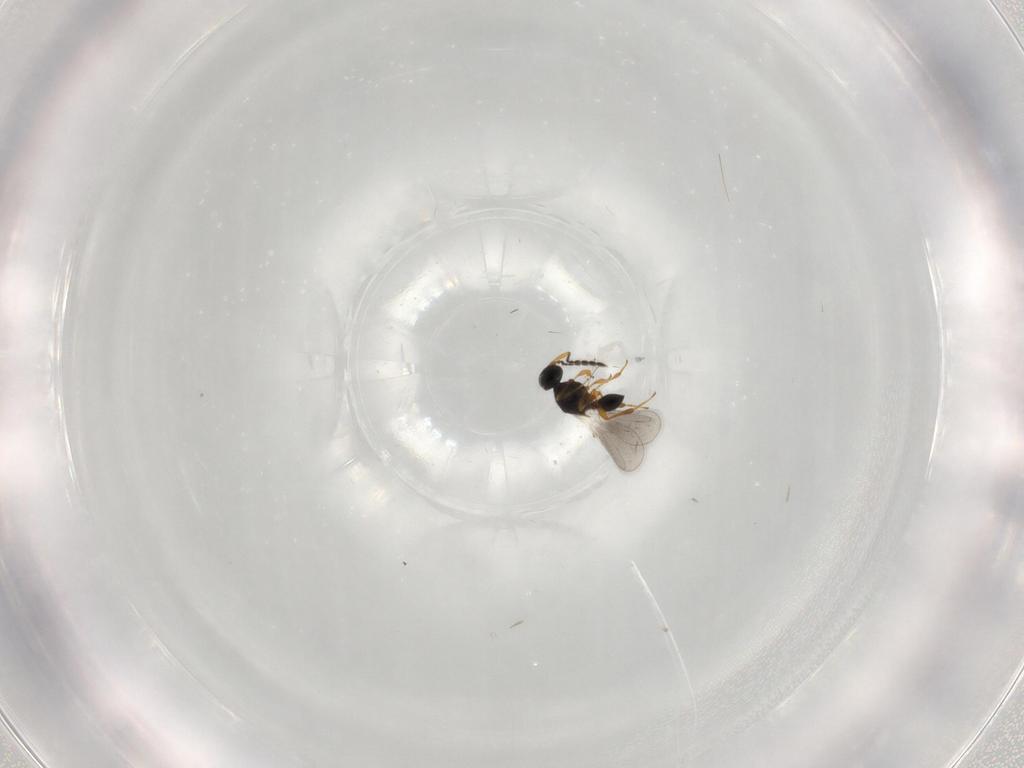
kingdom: Animalia
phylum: Arthropoda
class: Insecta
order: Hymenoptera
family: Platygastridae
